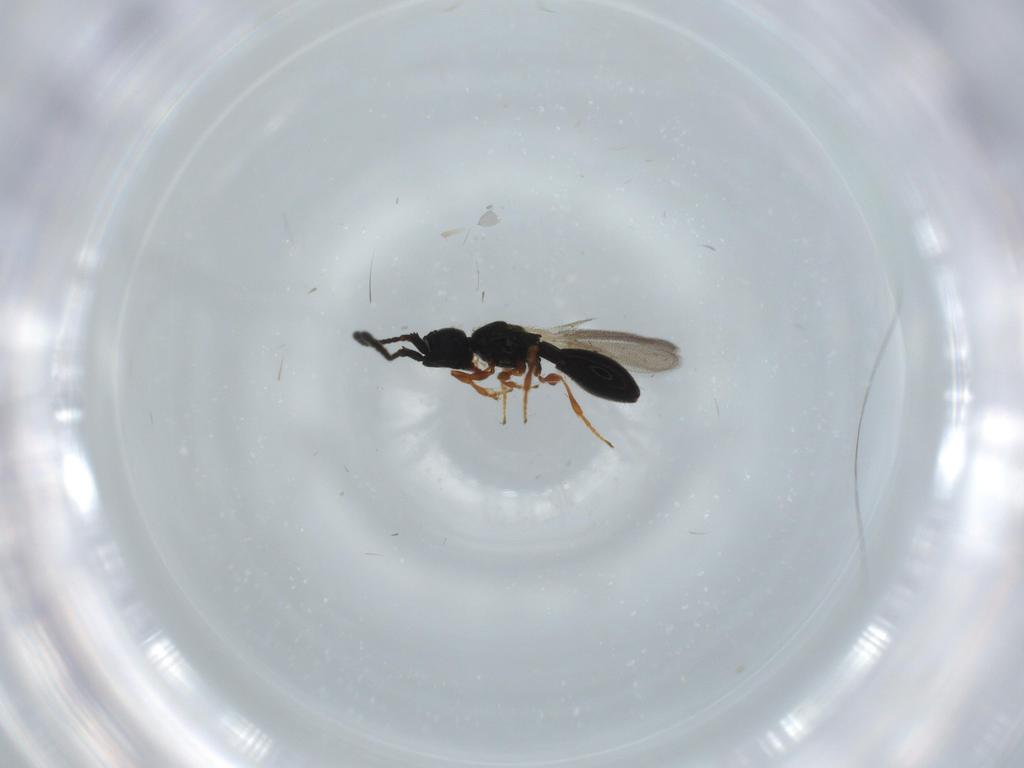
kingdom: Animalia
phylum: Arthropoda
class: Insecta
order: Hymenoptera
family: Diapriidae
